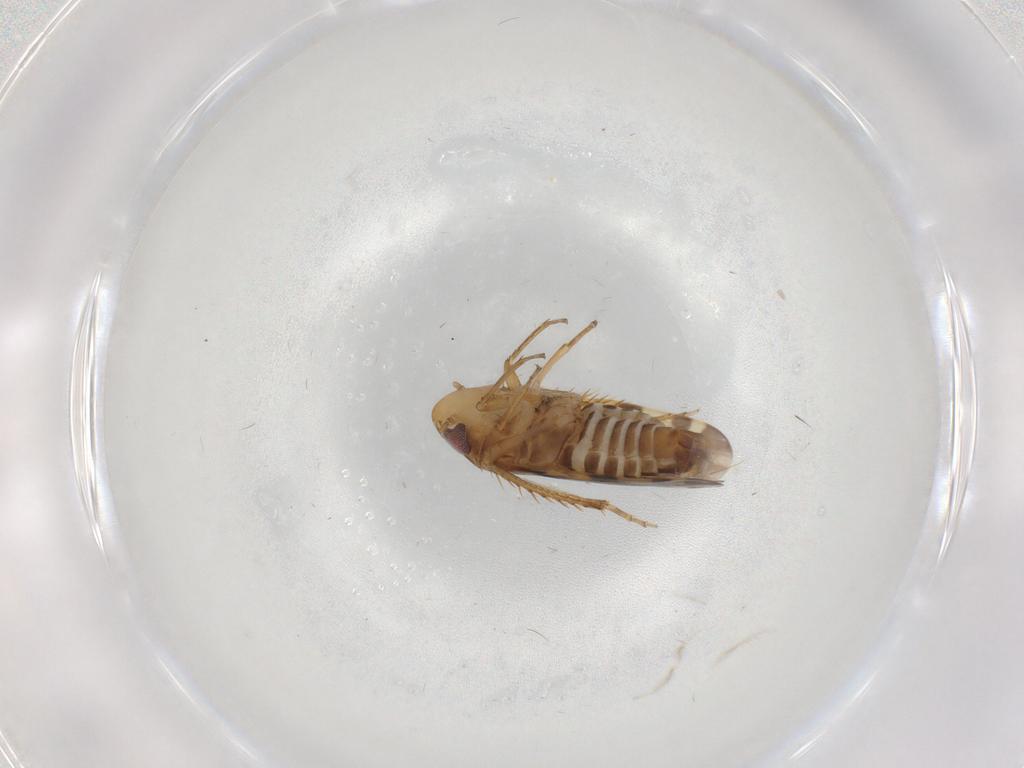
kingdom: Animalia
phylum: Arthropoda
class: Insecta
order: Hemiptera
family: Cicadellidae
